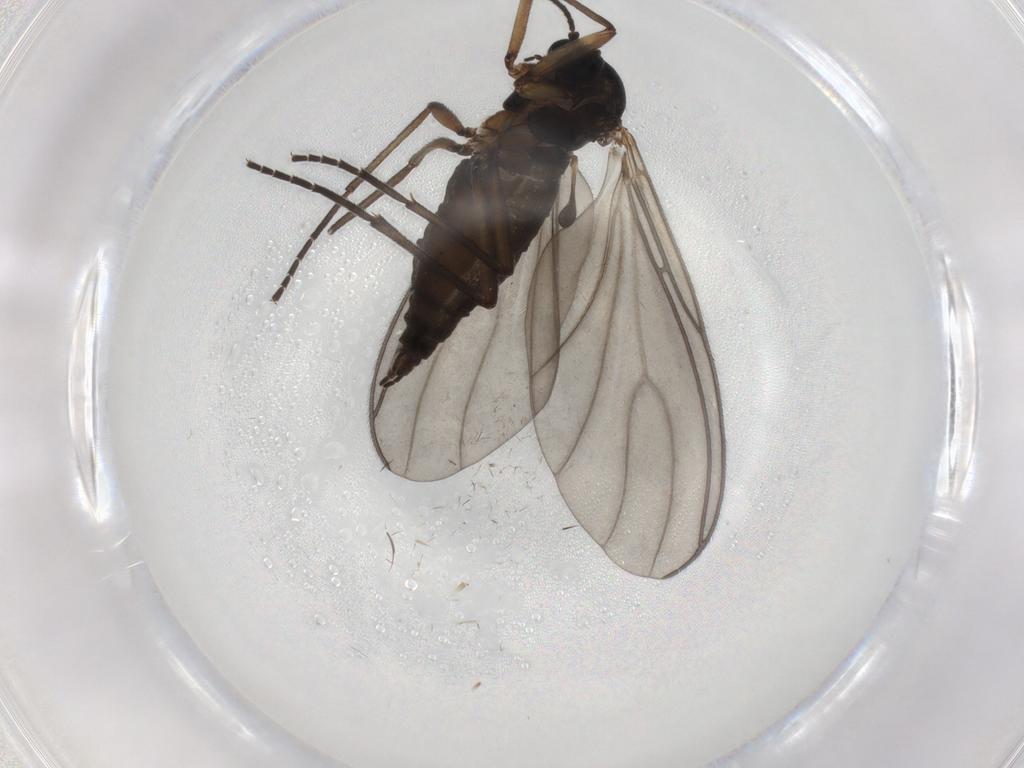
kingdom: Animalia
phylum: Arthropoda
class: Insecta
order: Diptera
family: Sciaridae
